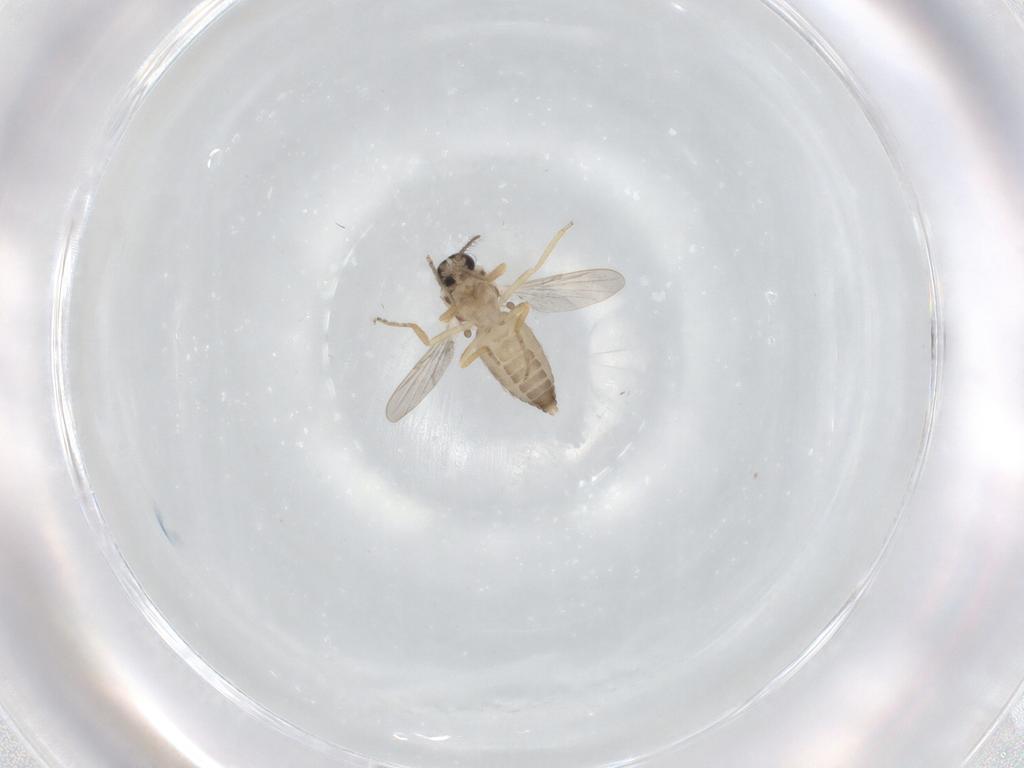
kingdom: Animalia
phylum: Arthropoda
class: Insecta
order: Diptera
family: Ceratopogonidae
